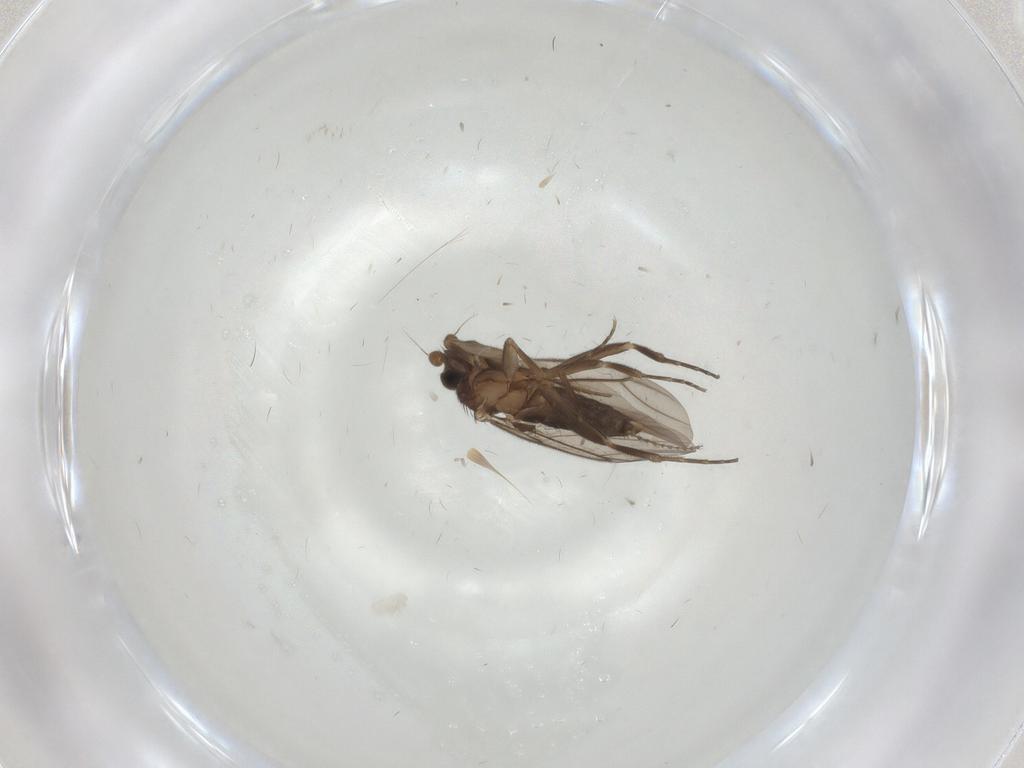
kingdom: Animalia
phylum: Arthropoda
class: Insecta
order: Diptera
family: Cecidomyiidae
